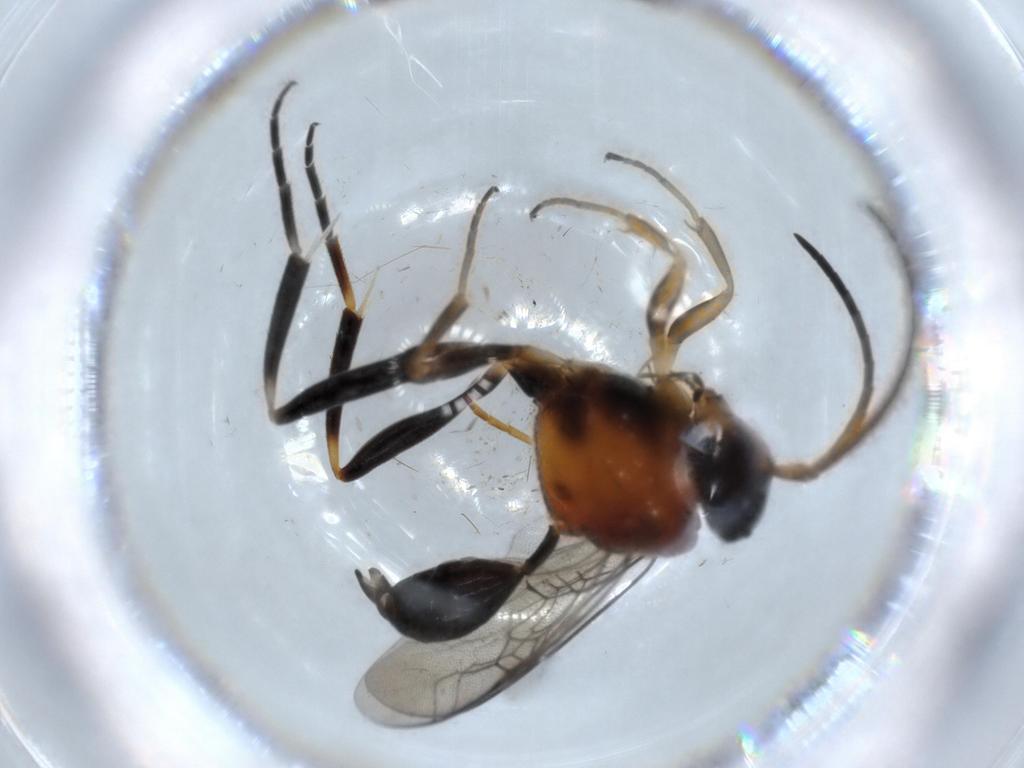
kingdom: Animalia
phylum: Arthropoda
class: Insecta
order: Hymenoptera
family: Evaniidae
